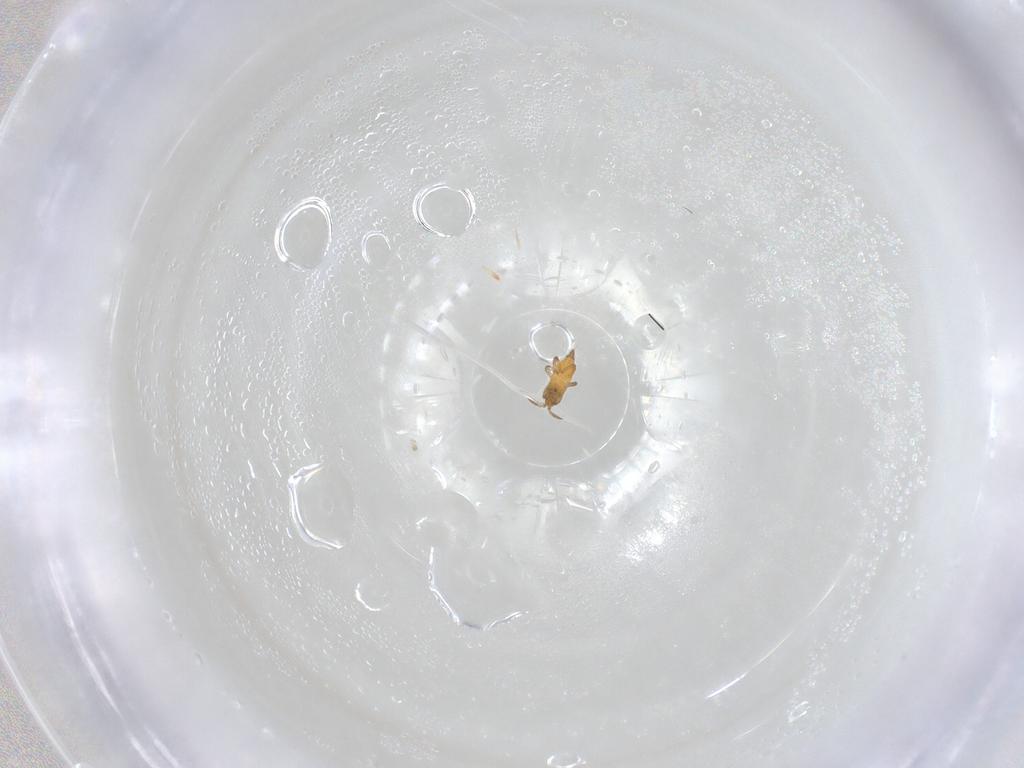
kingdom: Animalia
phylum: Arthropoda
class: Insecta
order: Thysanoptera
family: Phlaeothripidae
